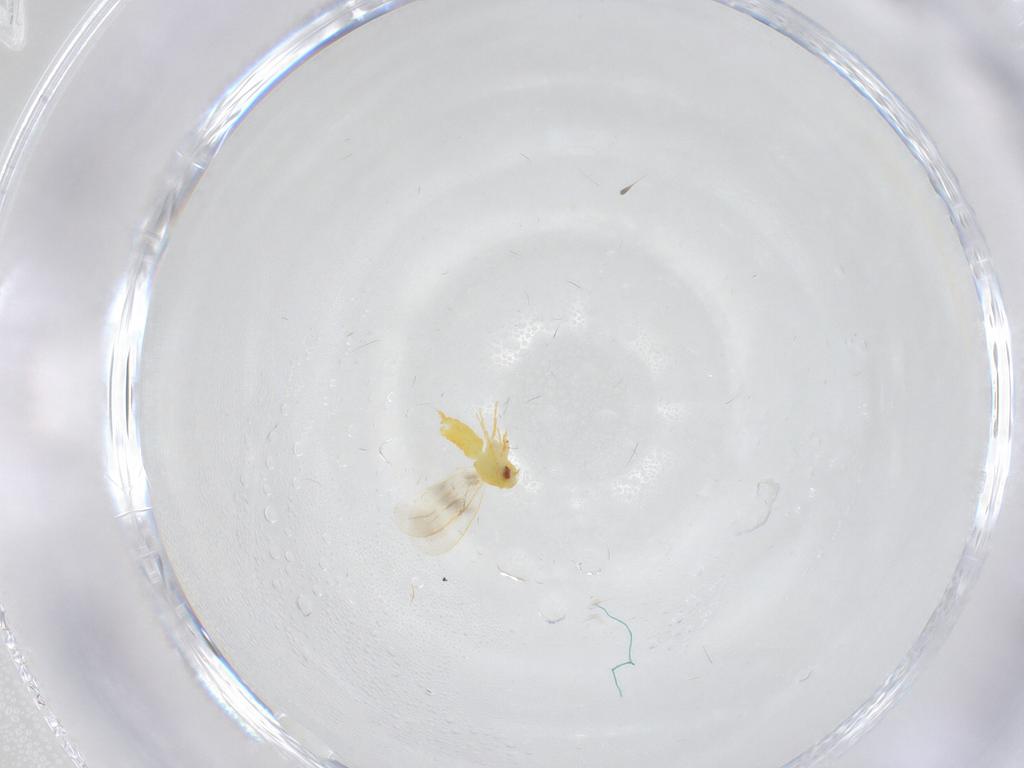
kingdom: Animalia
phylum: Arthropoda
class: Insecta
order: Hemiptera
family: Aleyrodidae
